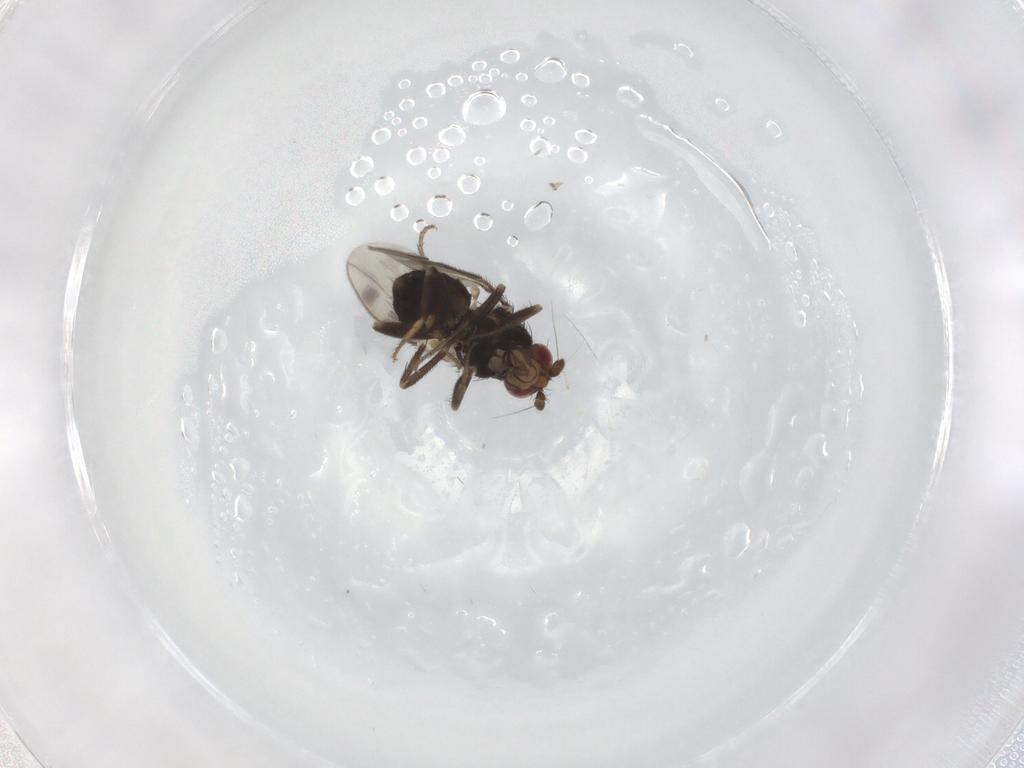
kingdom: Animalia
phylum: Arthropoda
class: Insecta
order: Diptera
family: Sphaeroceridae
